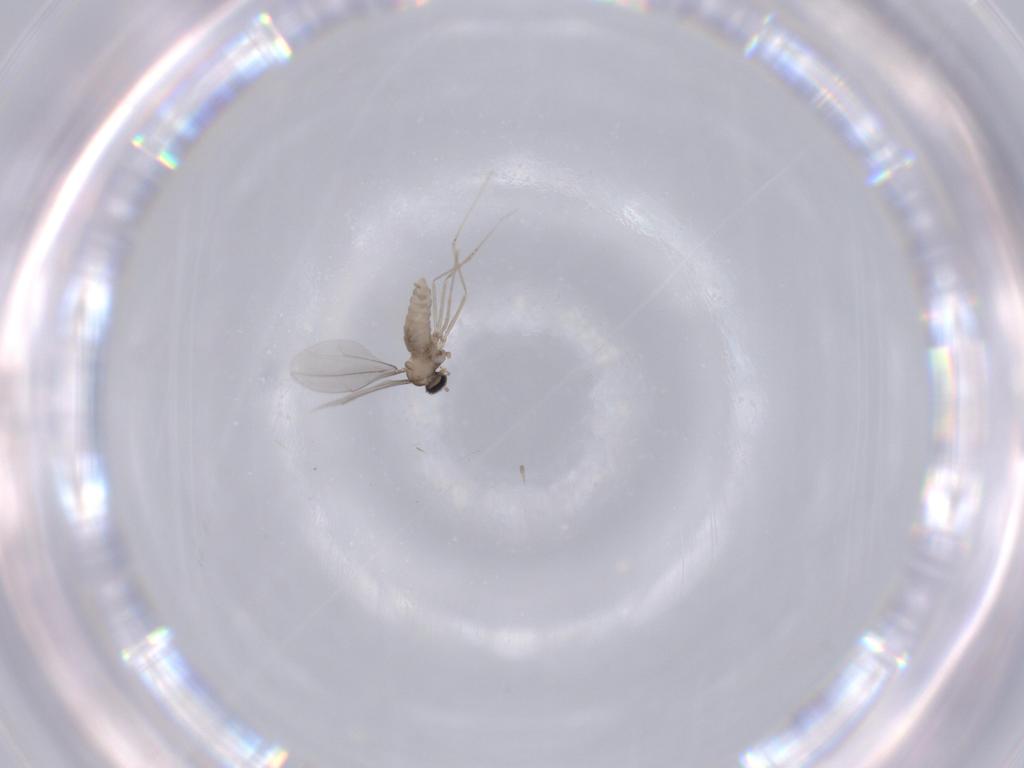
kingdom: Animalia
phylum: Arthropoda
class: Insecta
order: Diptera
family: Cecidomyiidae
